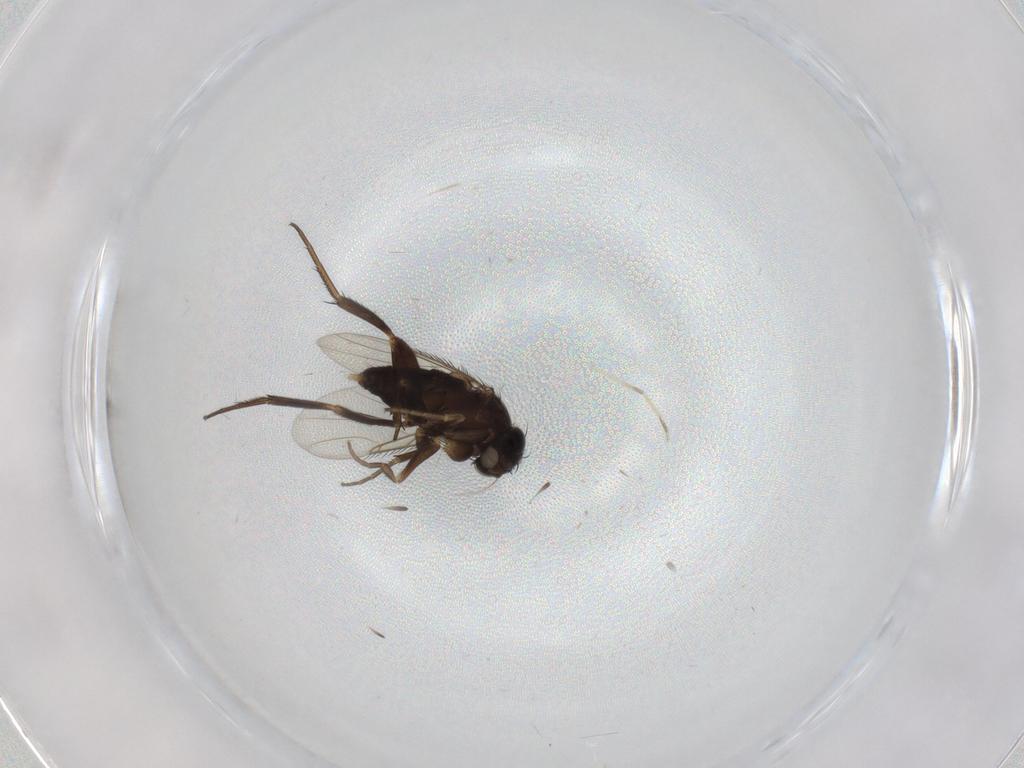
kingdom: Animalia
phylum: Arthropoda
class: Insecta
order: Diptera
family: Phoridae
